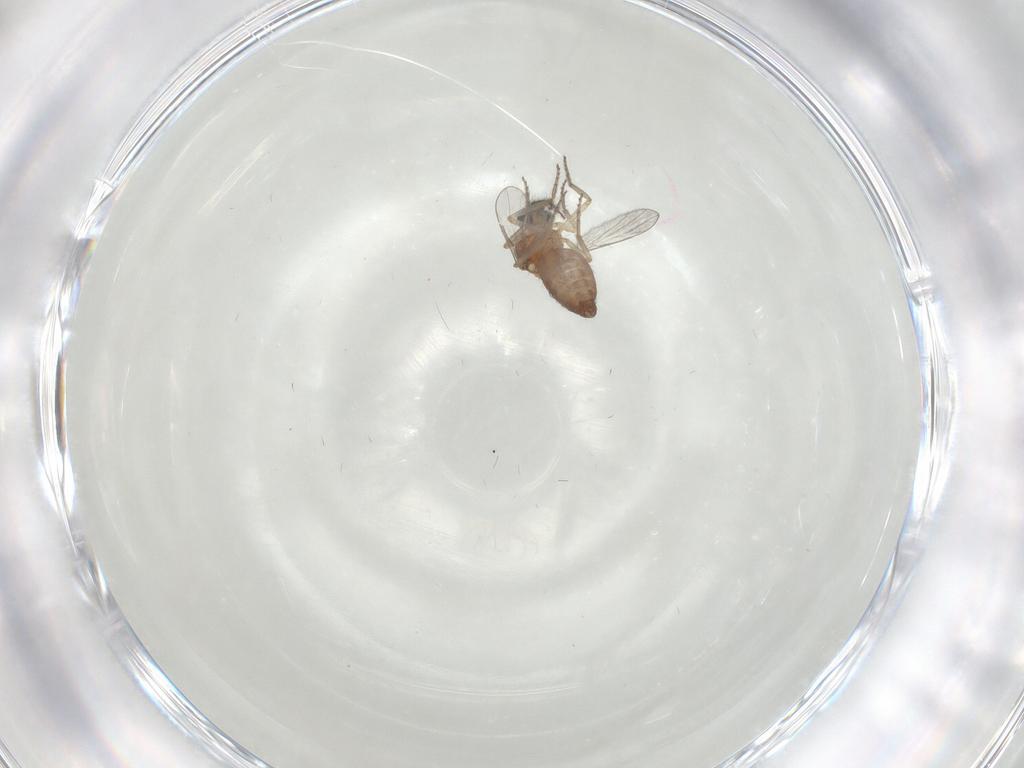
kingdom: Animalia
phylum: Arthropoda
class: Insecta
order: Diptera
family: Ceratopogonidae
